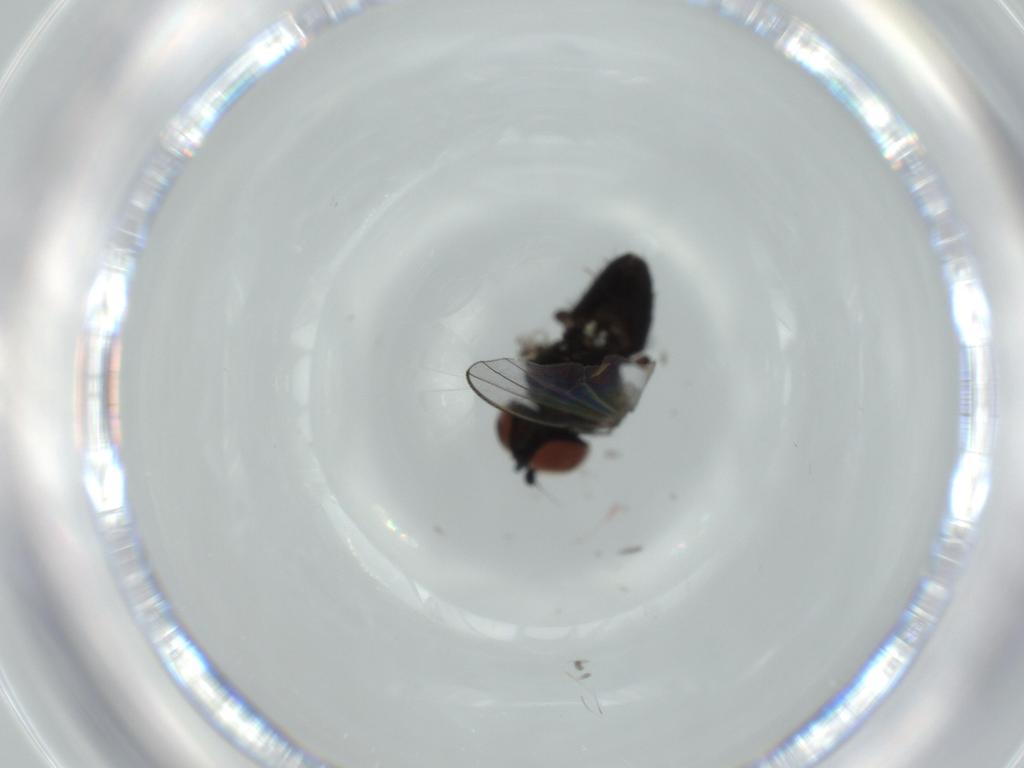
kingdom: Animalia
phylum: Arthropoda
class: Insecta
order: Diptera
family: Milichiidae
